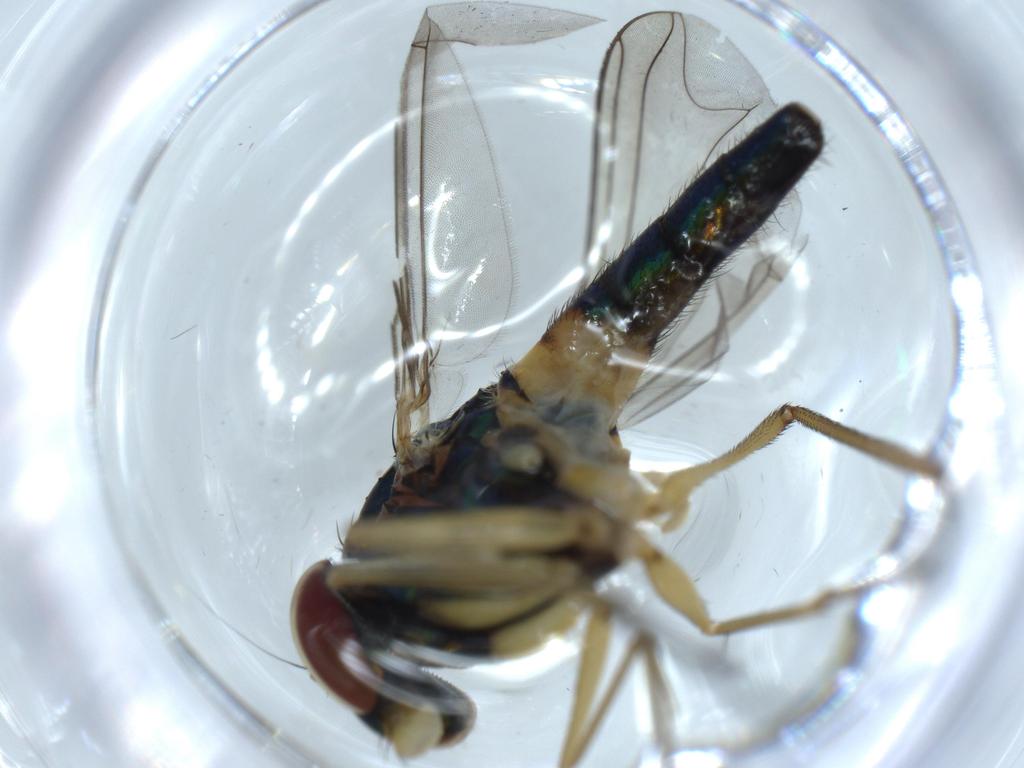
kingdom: Animalia
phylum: Arthropoda
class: Insecta
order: Diptera
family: Dolichopodidae
